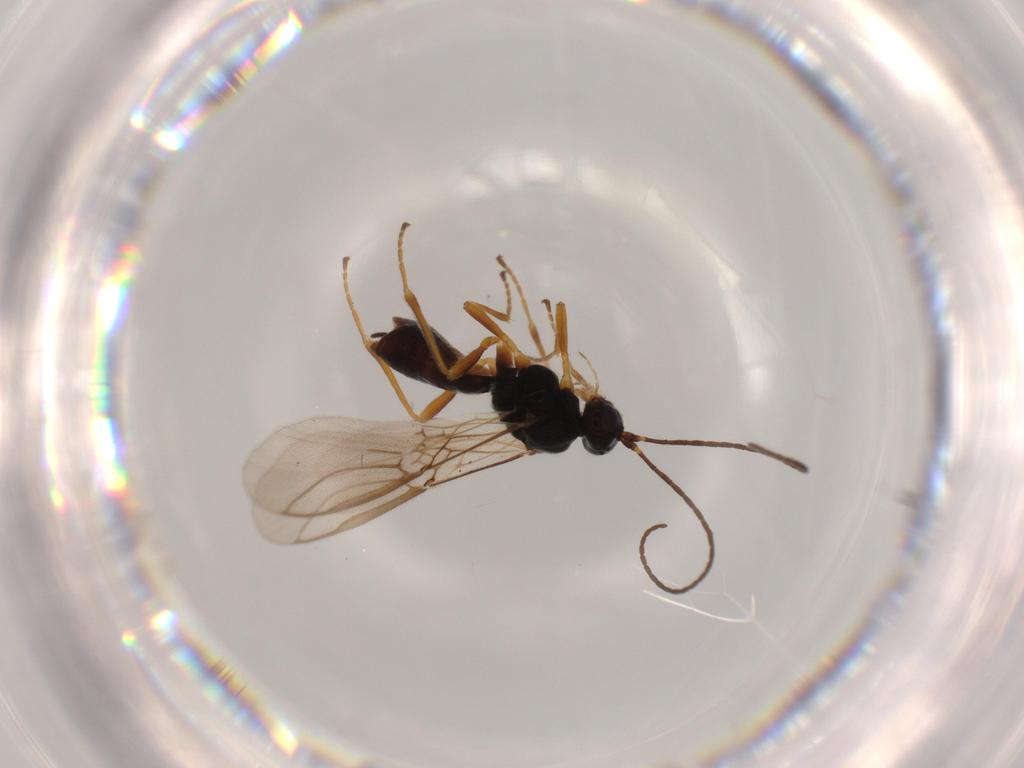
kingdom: Animalia
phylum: Arthropoda
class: Insecta
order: Hymenoptera
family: Braconidae
